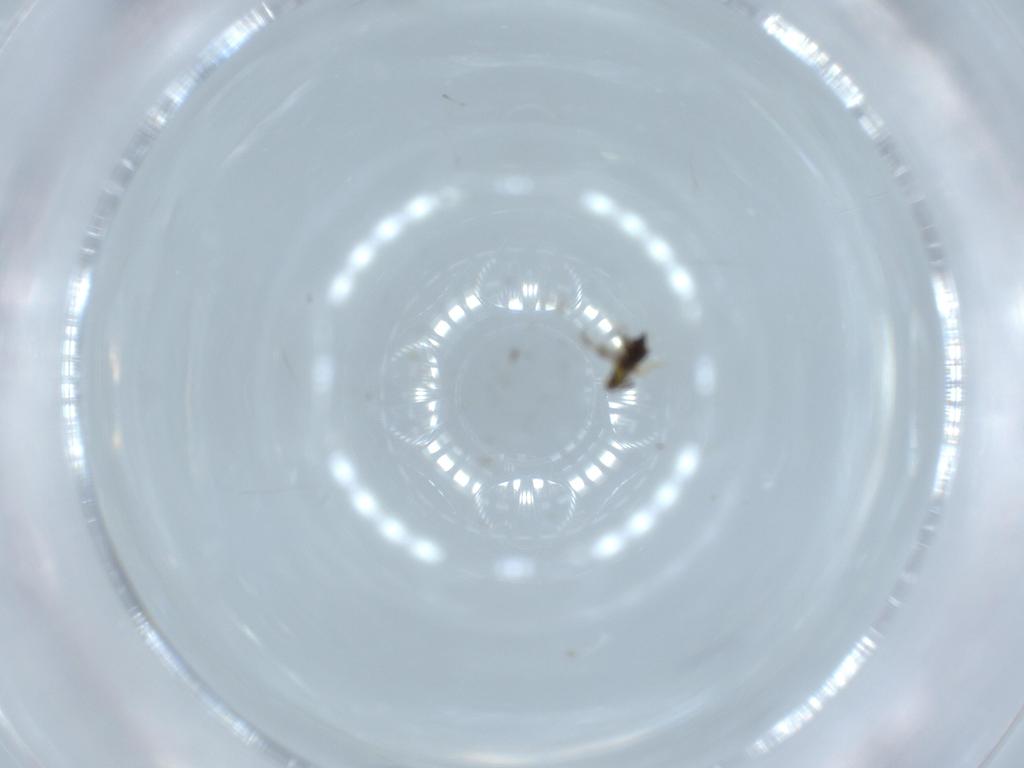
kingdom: Animalia
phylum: Arthropoda
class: Insecta
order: Hymenoptera
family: Signiphoridae
